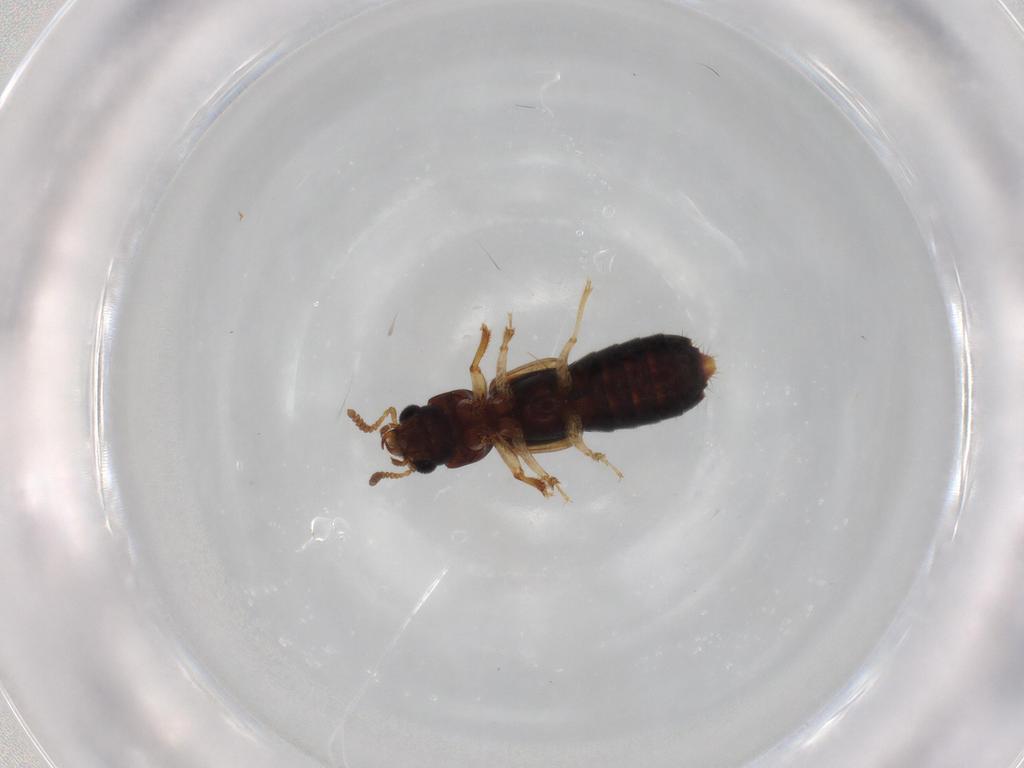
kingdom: Animalia
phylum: Arthropoda
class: Insecta
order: Coleoptera
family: Staphylinidae
